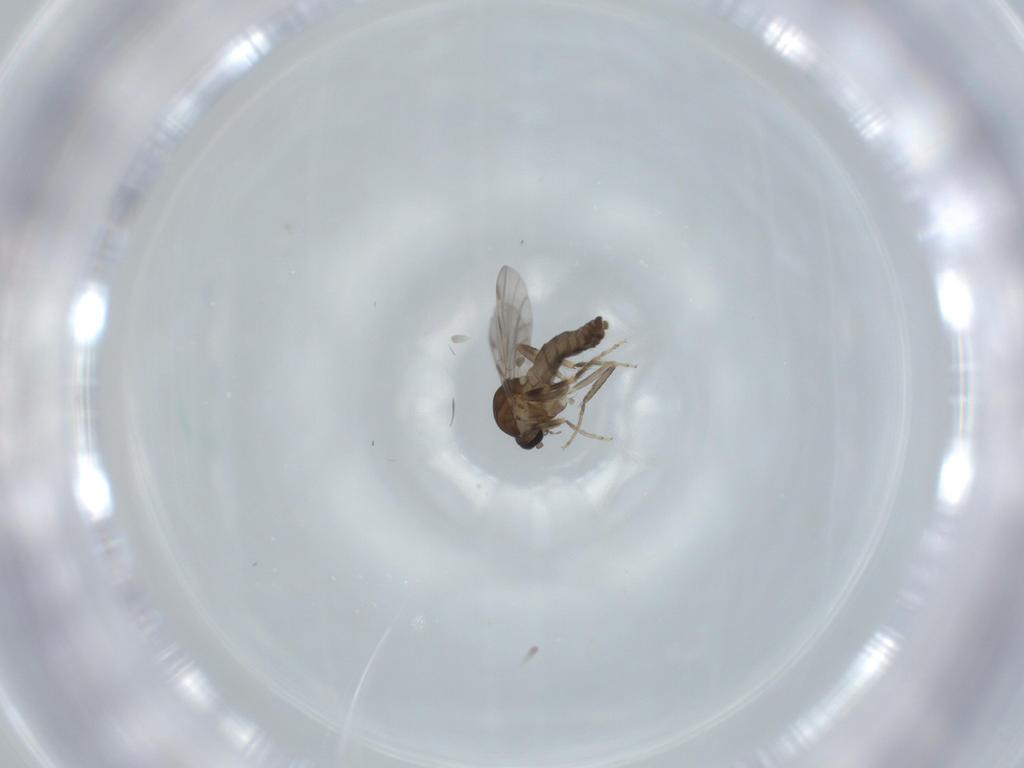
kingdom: Animalia
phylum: Arthropoda
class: Insecta
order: Diptera
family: Ceratopogonidae
